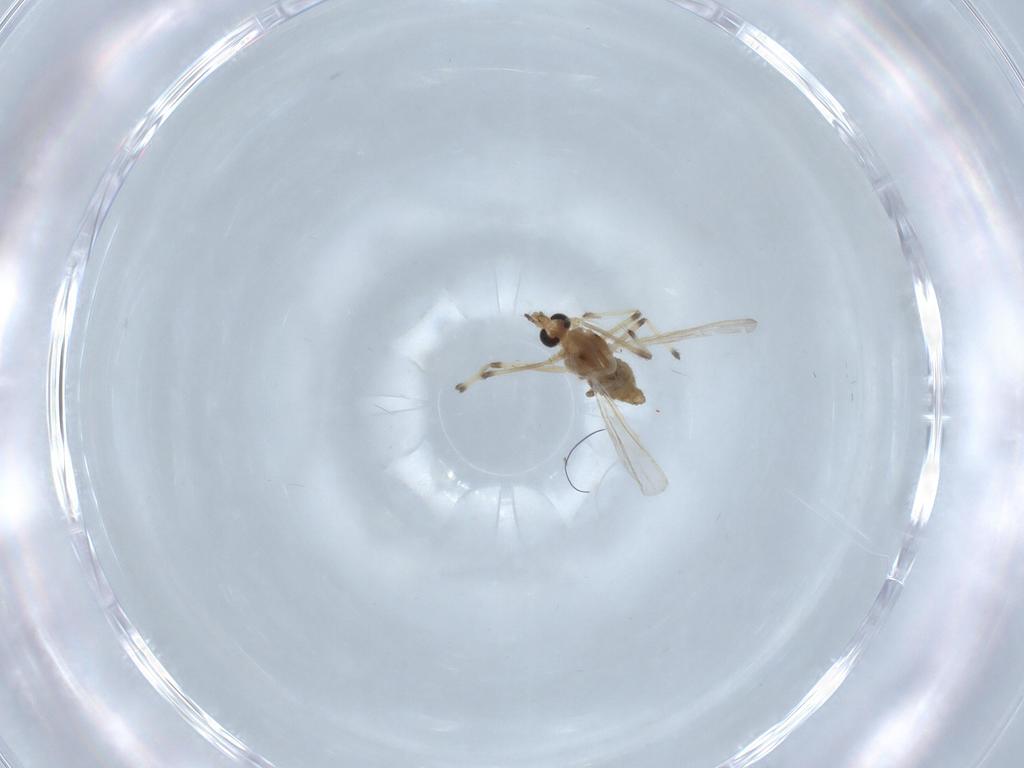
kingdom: Animalia
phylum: Arthropoda
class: Insecta
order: Diptera
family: Chironomidae
